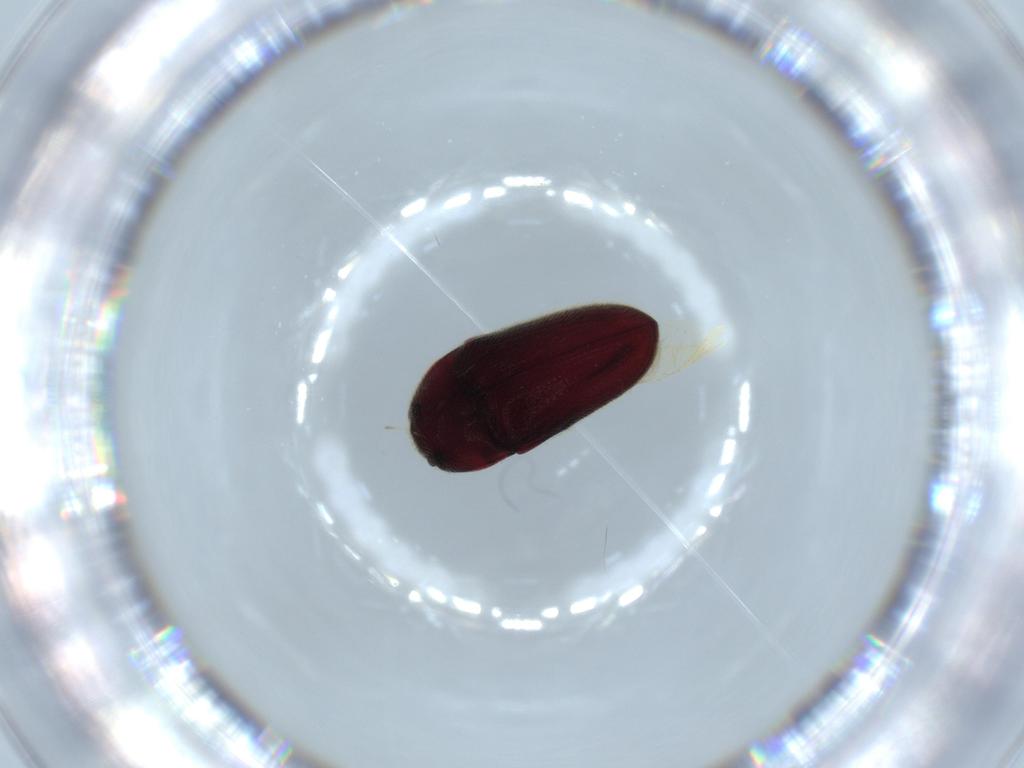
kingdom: Animalia
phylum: Arthropoda
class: Insecta
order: Coleoptera
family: Throscidae
